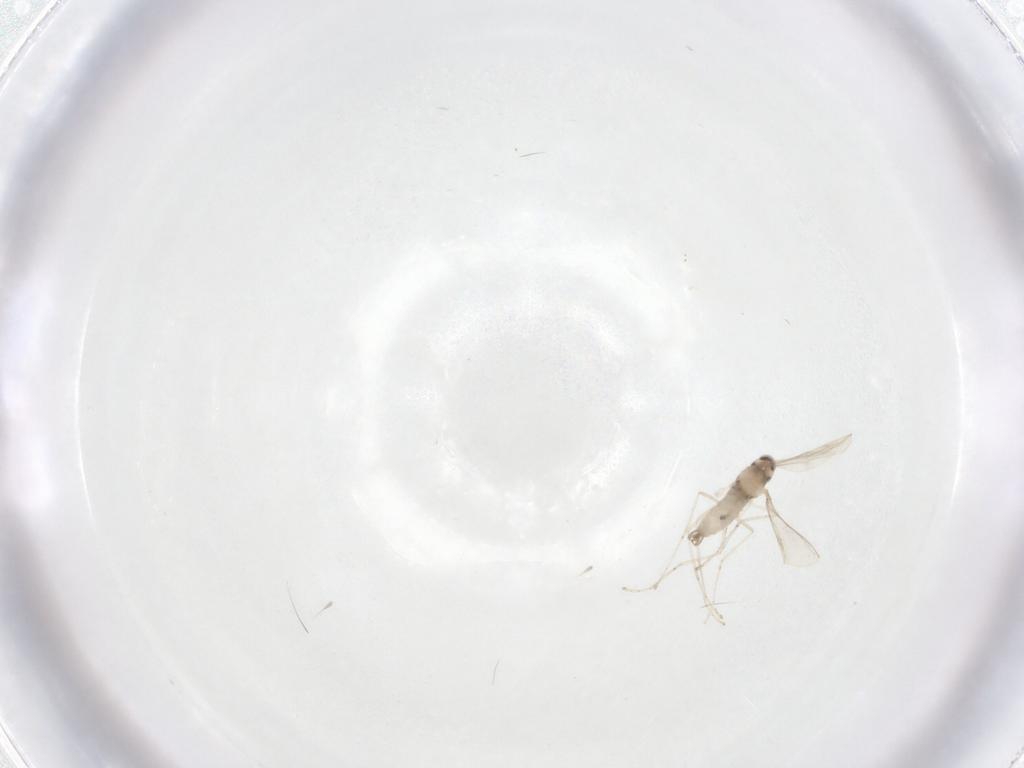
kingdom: Animalia
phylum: Arthropoda
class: Insecta
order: Diptera
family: Cecidomyiidae
